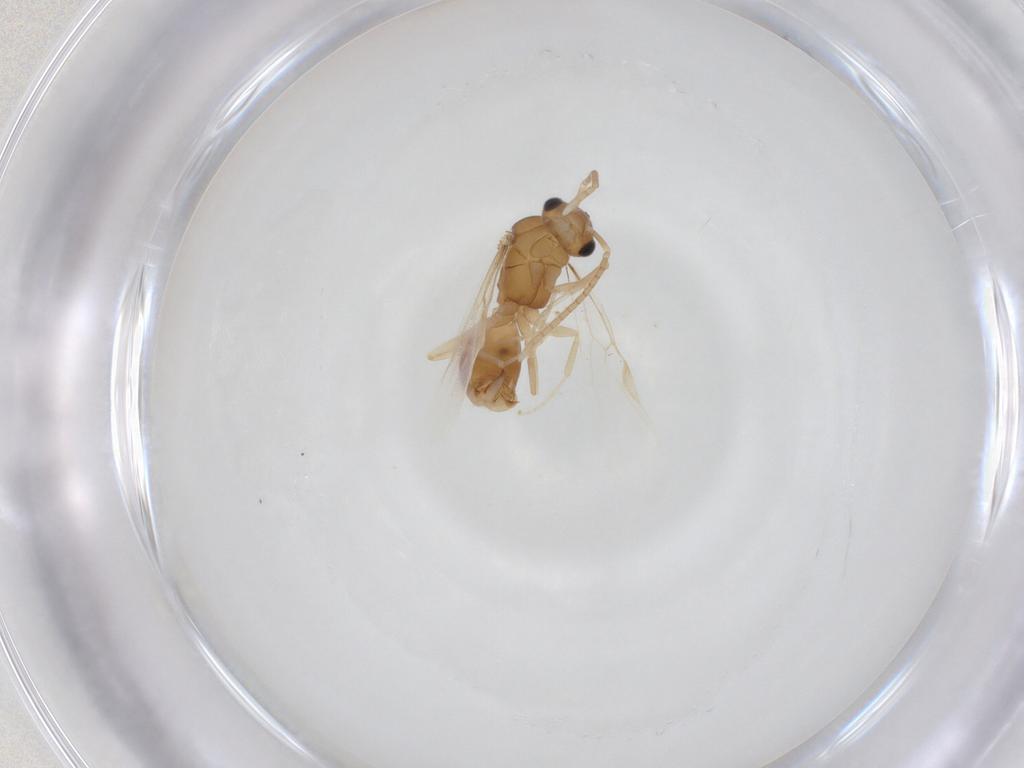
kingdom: Animalia
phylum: Arthropoda
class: Insecta
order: Hymenoptera
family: Formicidae
